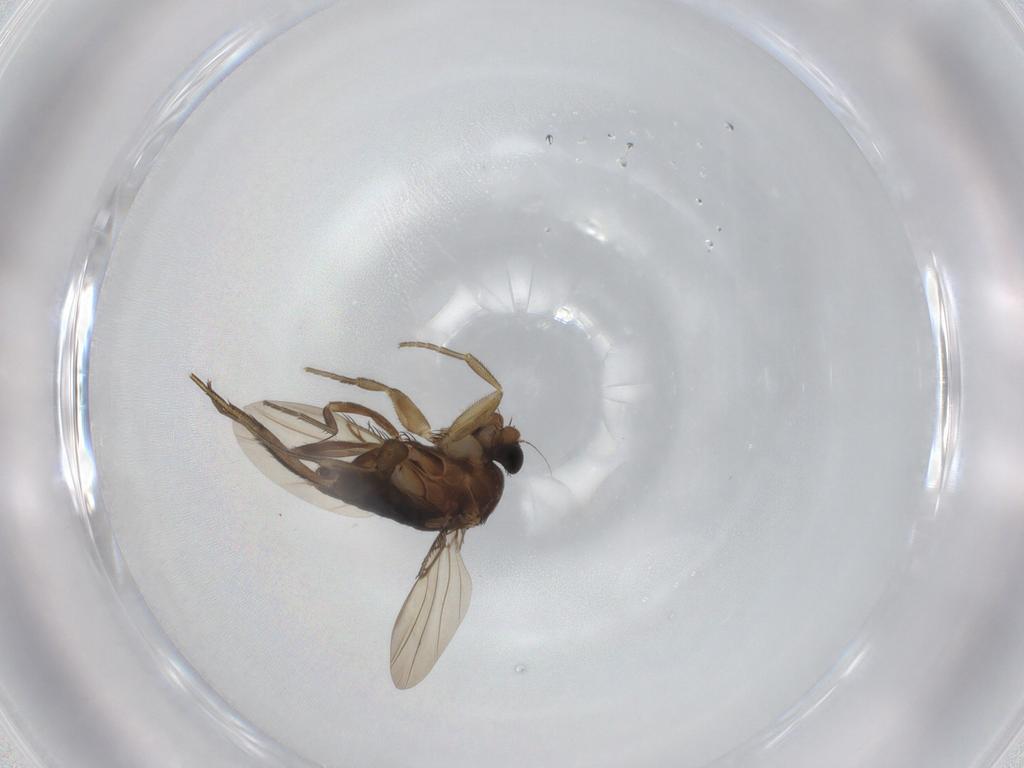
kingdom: Animalia
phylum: Arthropoda
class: Insecta
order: Diptera
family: Phoridae
